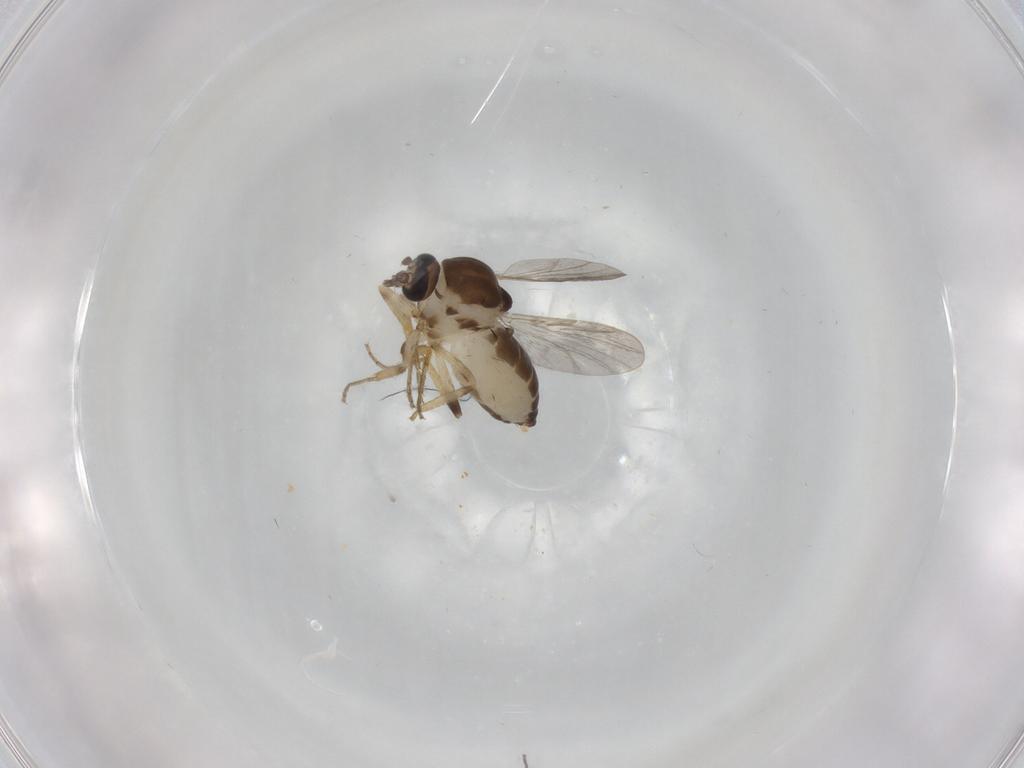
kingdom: Animalia
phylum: Arthropoda
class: Insecta
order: Diptera
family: Ceratopogonidae
